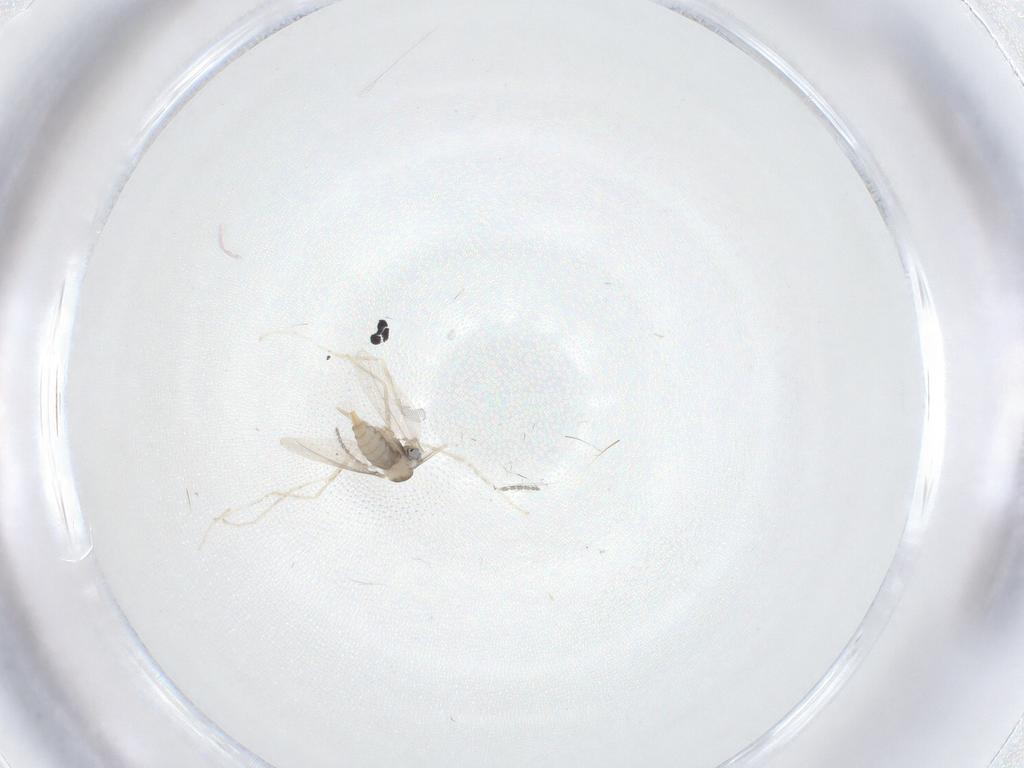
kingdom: Animalia
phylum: Arthropoda
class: Insecta
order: Diptera
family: Cecidomyiidae
